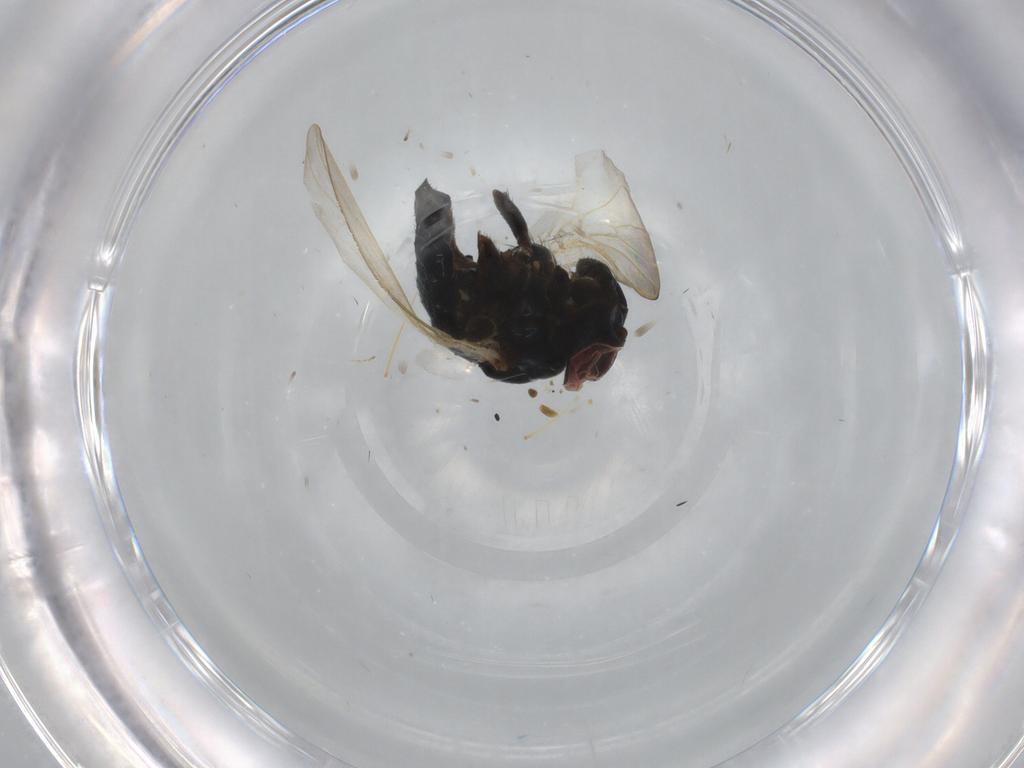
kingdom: Animalia
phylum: Arthropoda
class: Insecta
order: Diptera
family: Lonchaeidae
